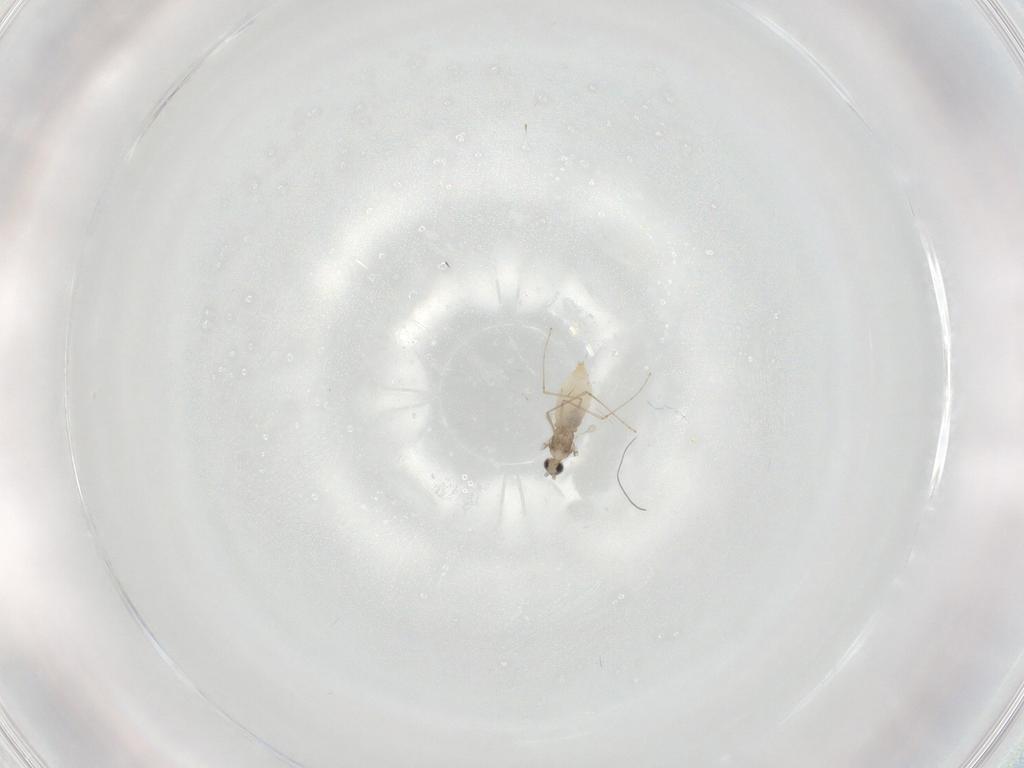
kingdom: Animalia
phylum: Arthropoda
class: Insecta
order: Diptera
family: Cecidomyiidae
